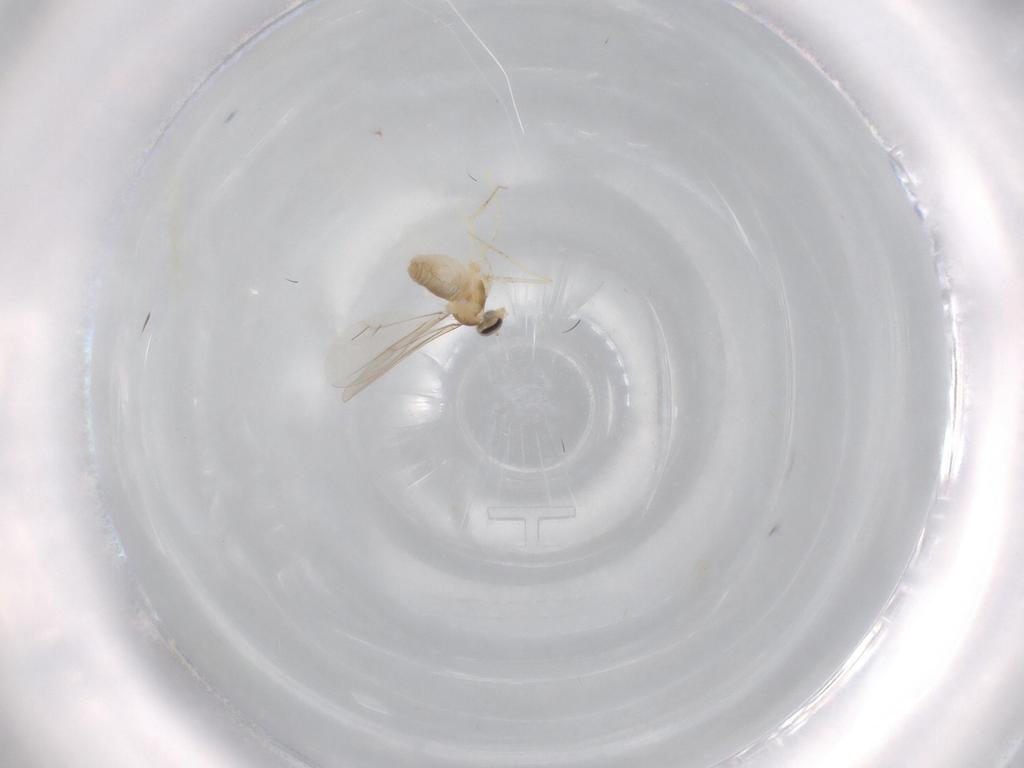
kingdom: Animalia
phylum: Arthropoda
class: Insecta
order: Diptera
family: Cecidomyiidae
